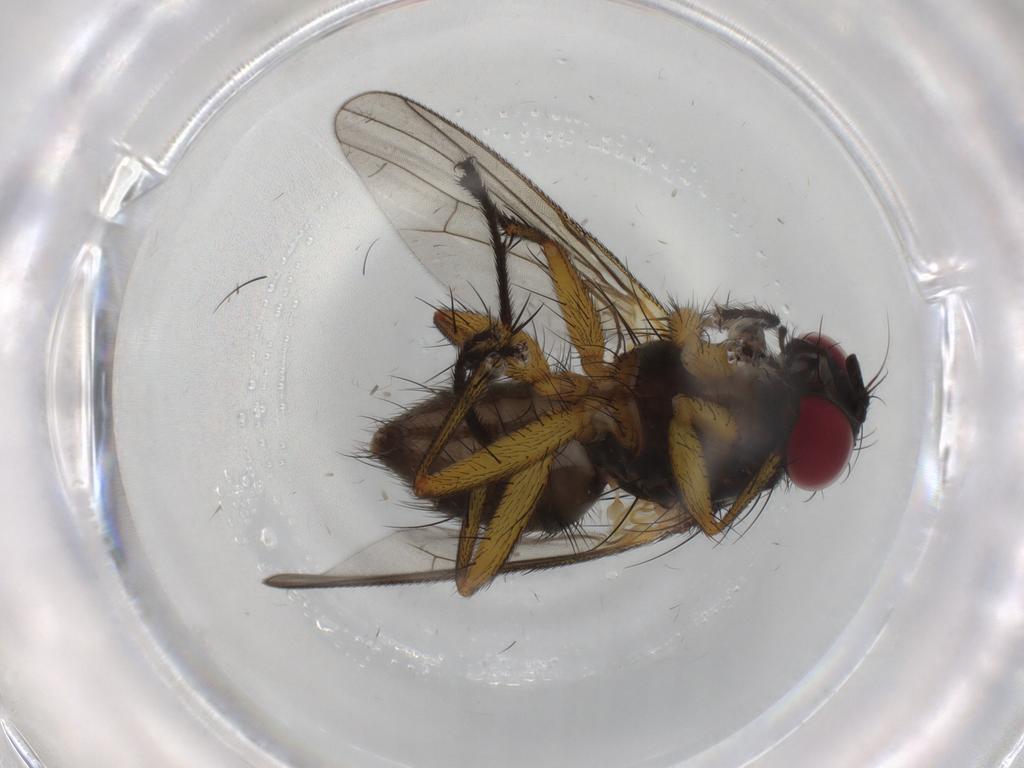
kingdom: Animalia
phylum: Arthropoda
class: Insecta
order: Diptera
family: Muscidae
